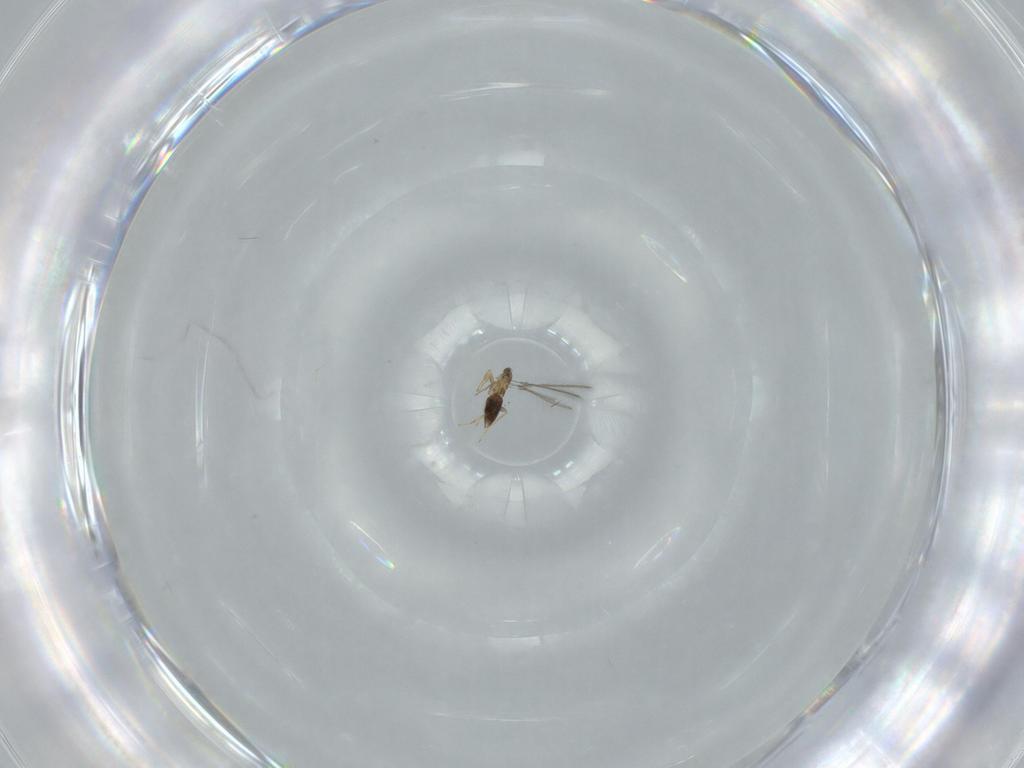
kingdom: Animalia
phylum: Arthropoda
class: Insecta
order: Hymenoptera
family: Mymaridae
